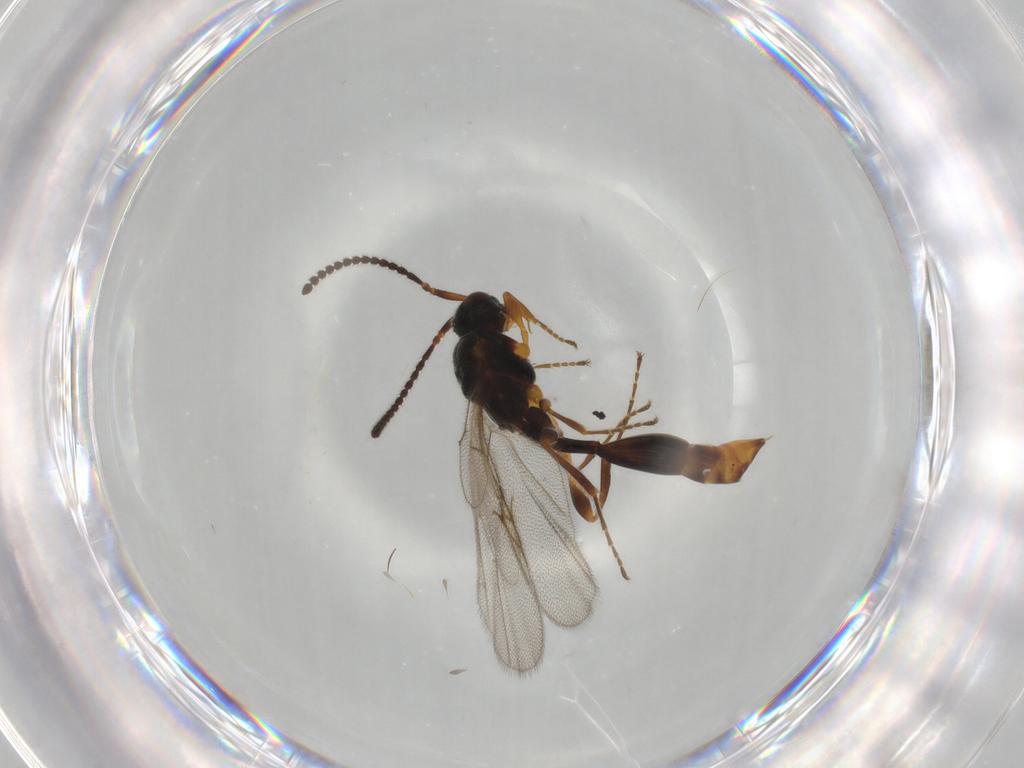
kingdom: Animalia
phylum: Arthropoda
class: Insecta
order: Hymenoptera
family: Diapriidae
